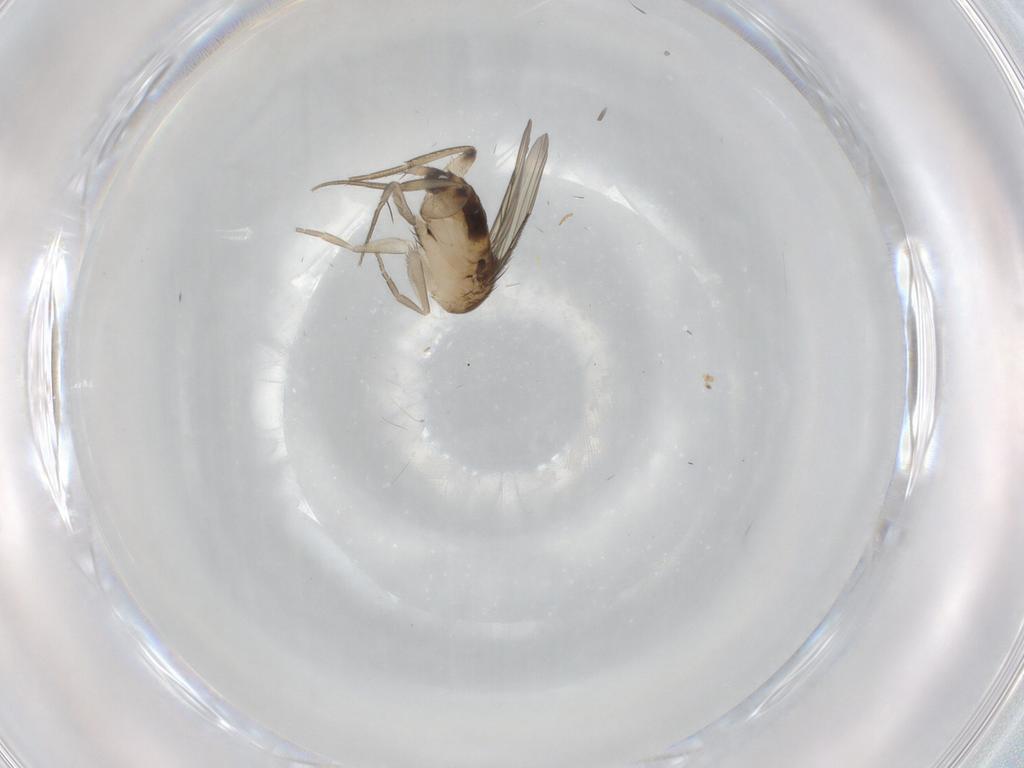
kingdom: Animalia
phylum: Arthropoda
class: Insecta
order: Diptera
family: Phoridae
